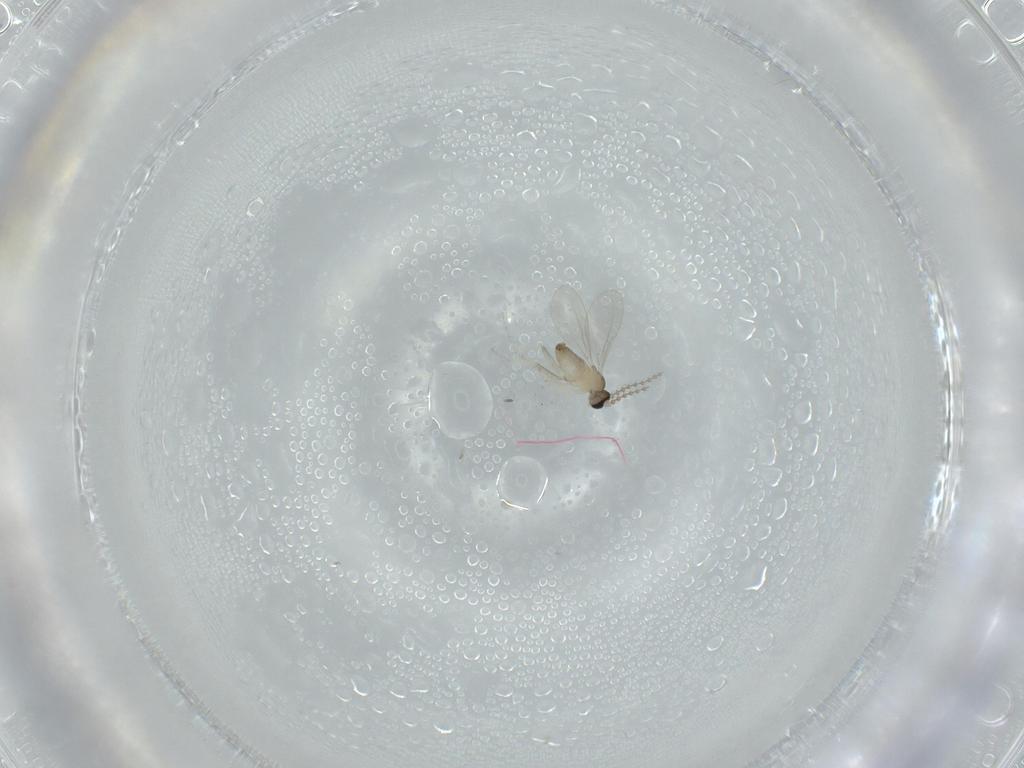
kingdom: Animalia
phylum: Arthropoda
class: Insecta
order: Diptera
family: Cecidomyiidae
